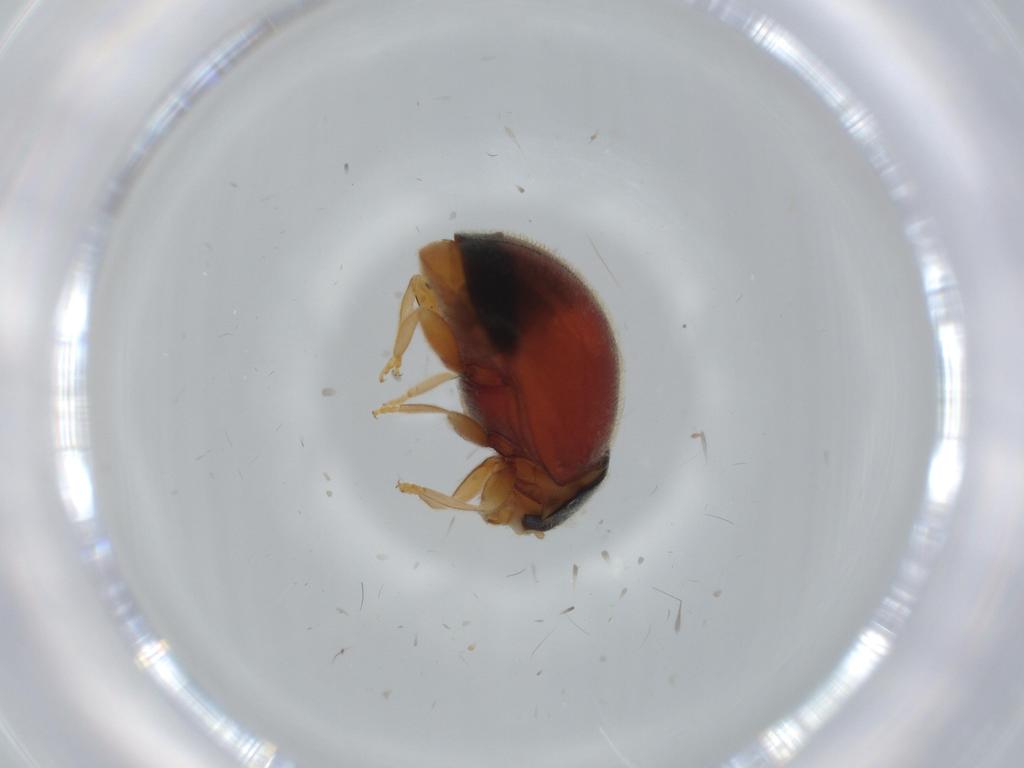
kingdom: Animalia
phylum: Arthropoda
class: Insecta
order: Coleoptera
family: Coccinellidae
